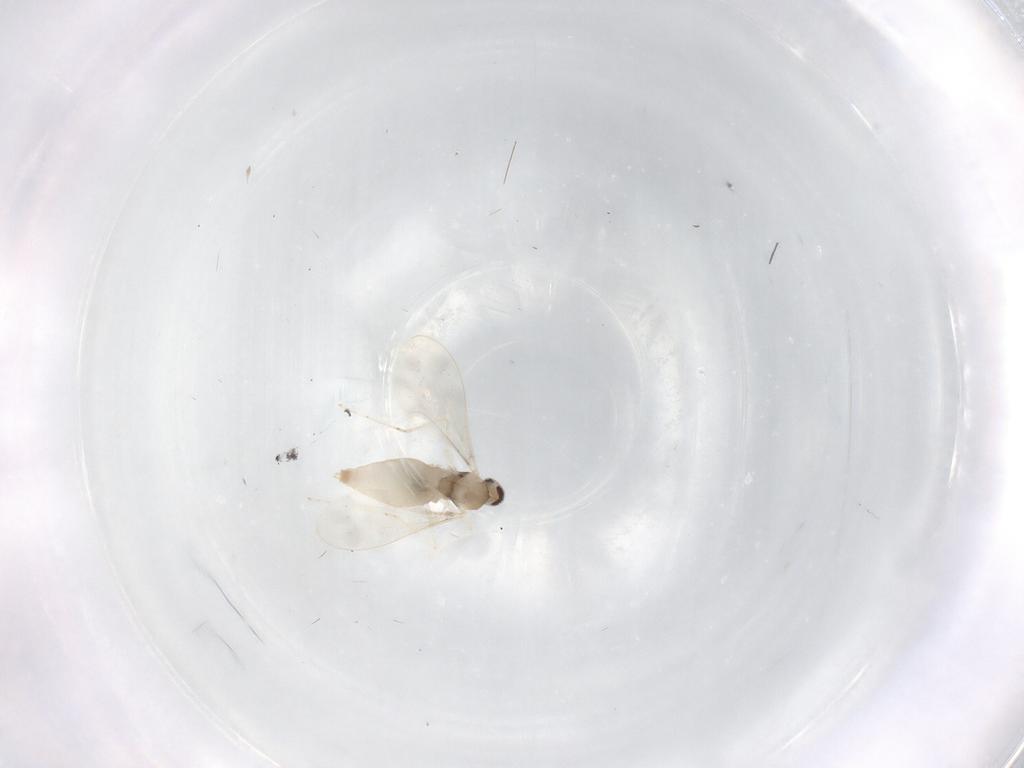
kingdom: Animalia
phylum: Arthropoda
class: Insecta
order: Diptera
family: Cecidomyiidae
